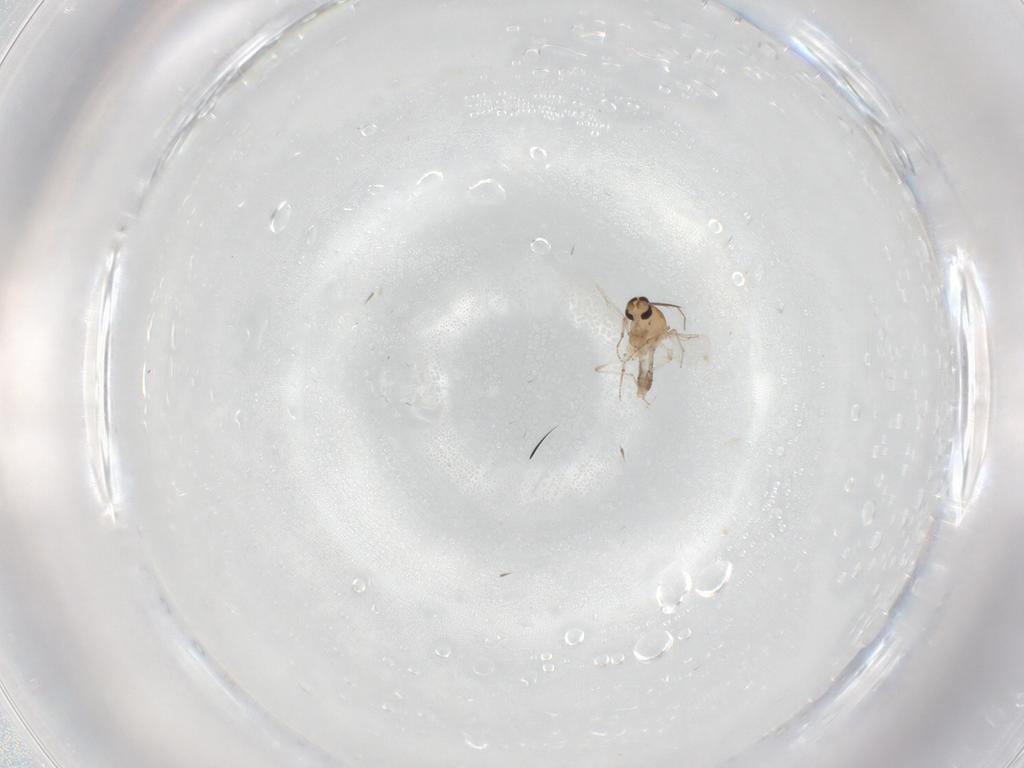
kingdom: Animalia
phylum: Arthropoda
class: Insecta
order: Diptera
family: Ceratopogonidae
